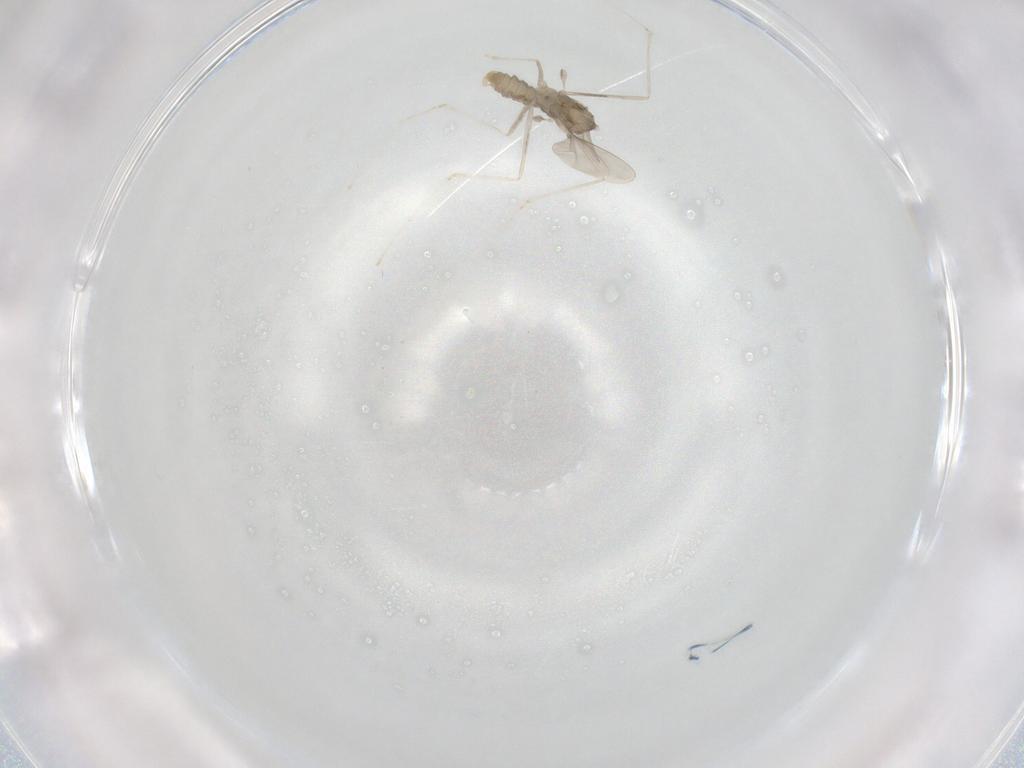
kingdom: Animalia
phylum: Arthropoda
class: Insecta
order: Diptera
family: Cecidomyiidae
